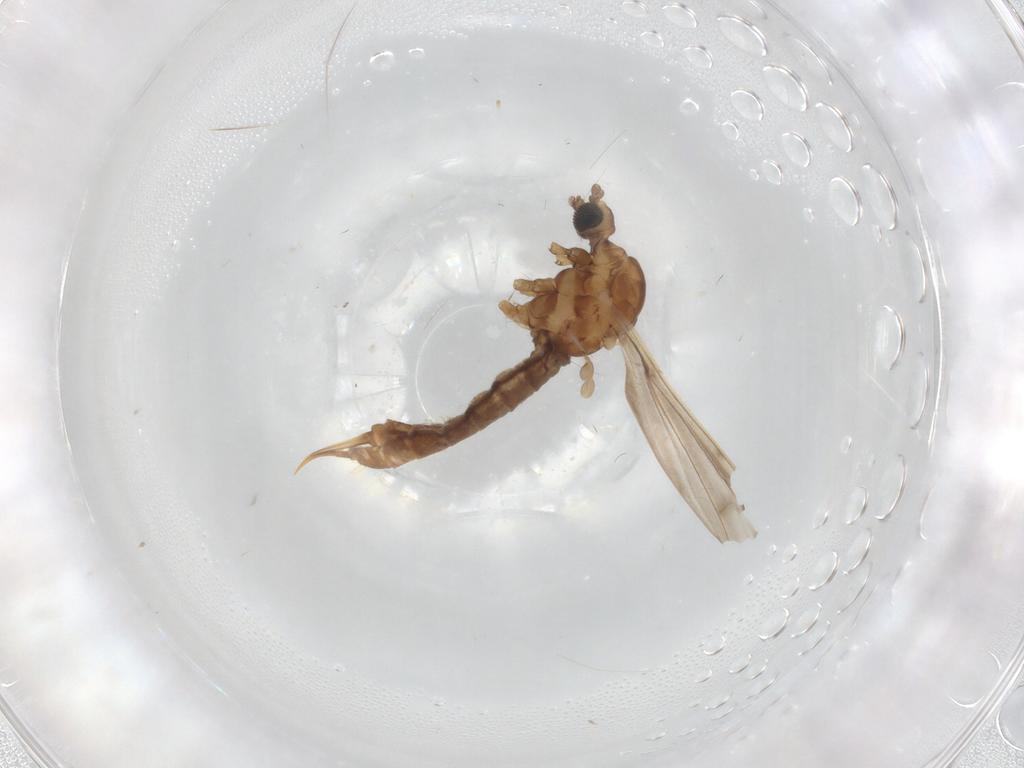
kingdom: Animalia
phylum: Arthropoda
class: Insecta
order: Diptera
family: Limoniidae
